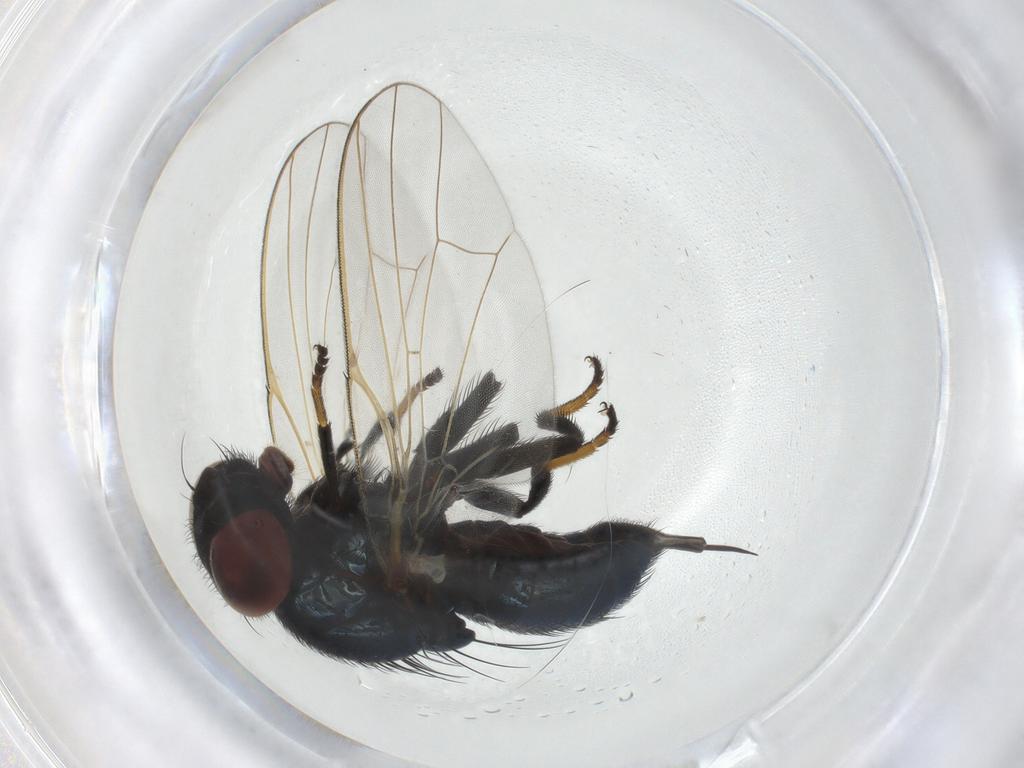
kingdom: Animalia
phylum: Arthropoda
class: Insecta
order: Diptera
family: Lonchaeidae
